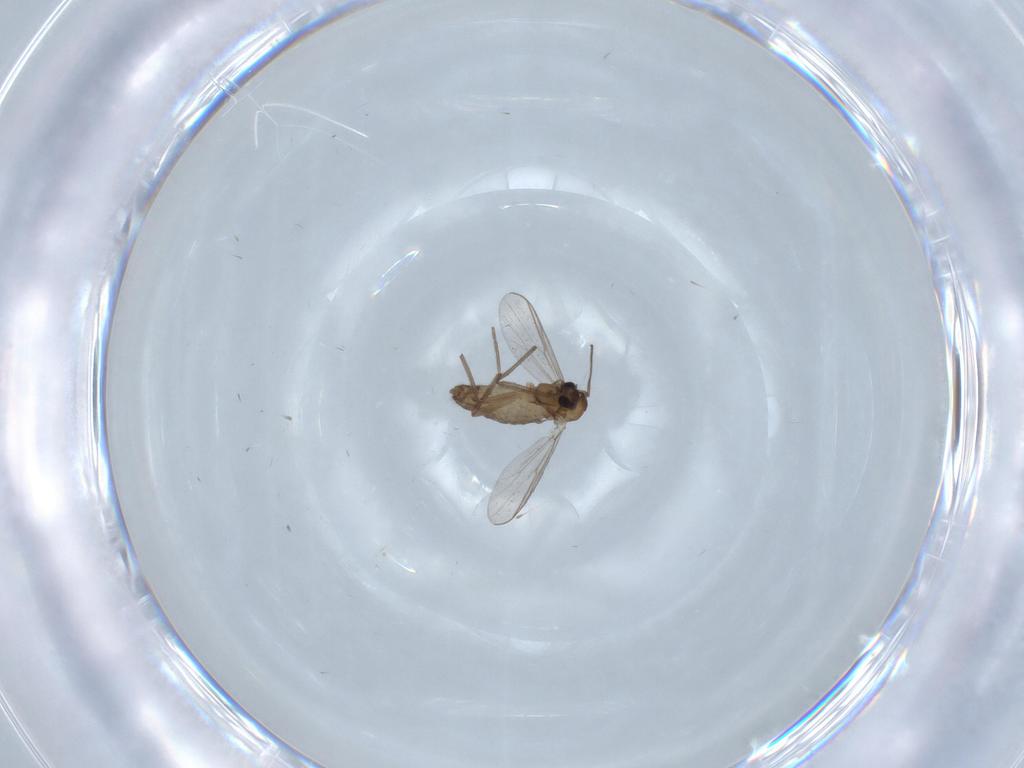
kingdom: Animalia
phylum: Arthropoda
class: Insecta
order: Diptera
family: Chironomidae
